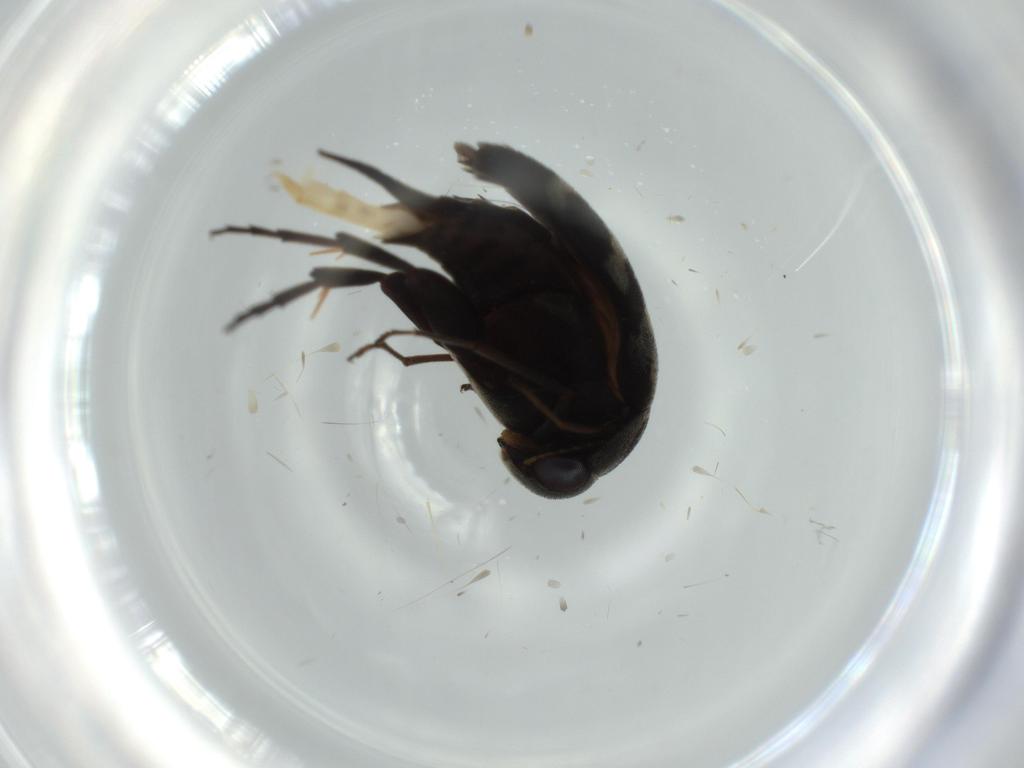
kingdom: Animalia
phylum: Arthropoda
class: Insecta
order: Coleoptera
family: Mordellidae
